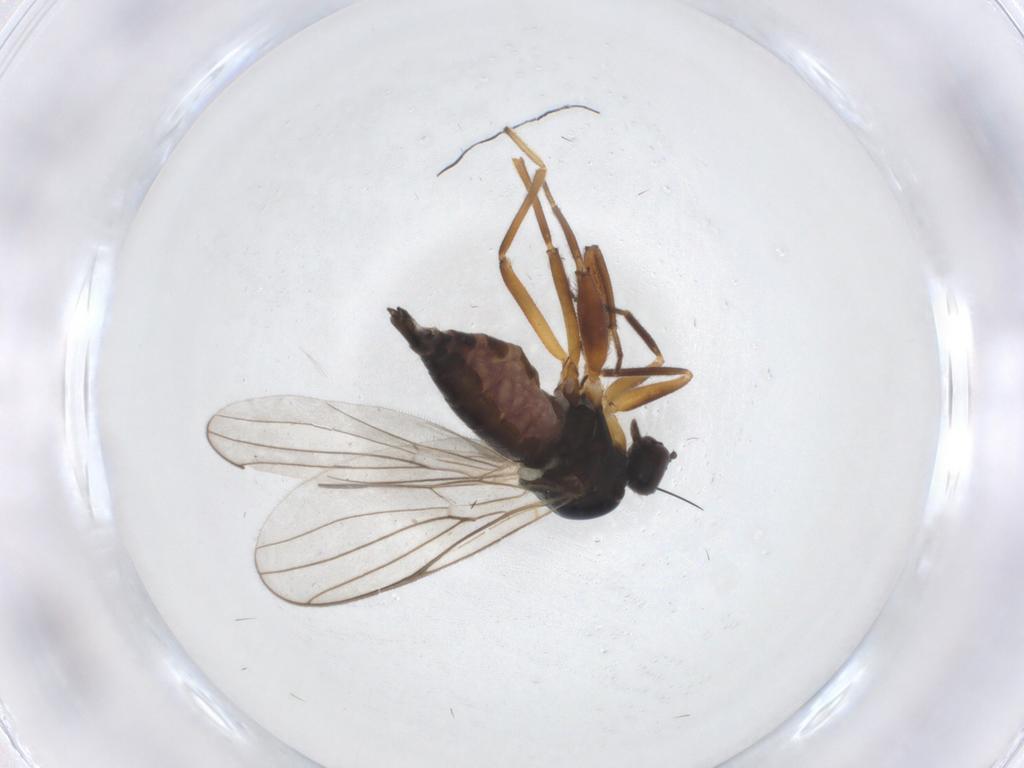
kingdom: Animalia
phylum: Arthropoda
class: Insecta
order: Diptera
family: Hybotidae
